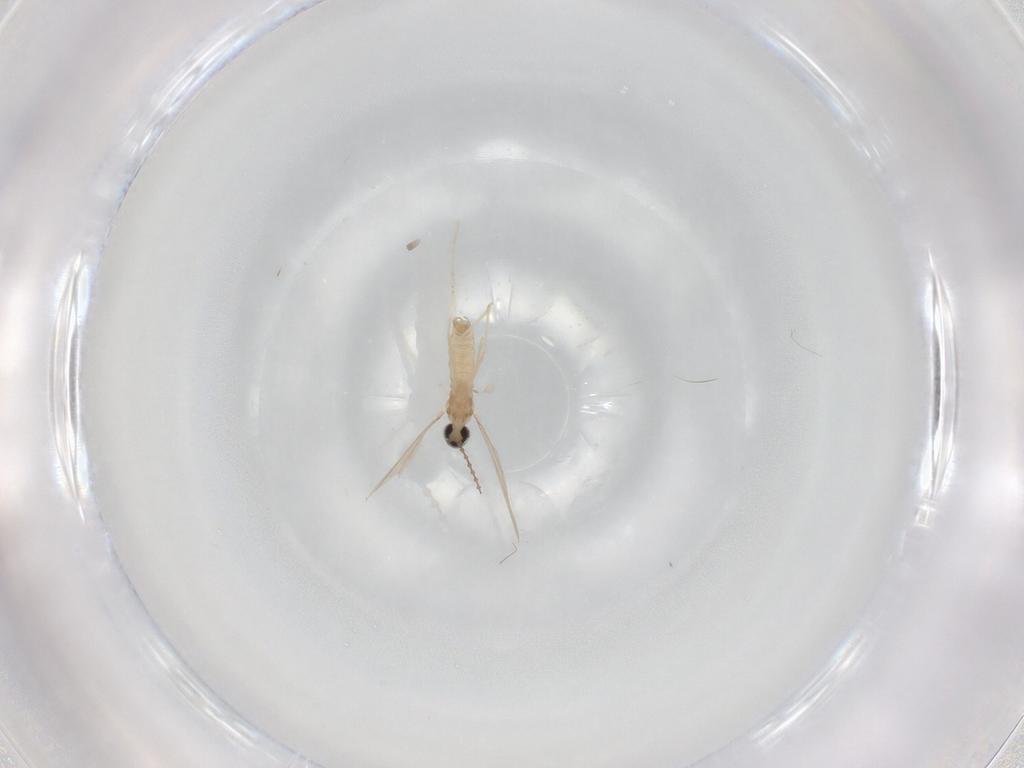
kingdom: Animalia
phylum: Arthropoda
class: Insecta
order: Diptera
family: Cecidomyiidae
